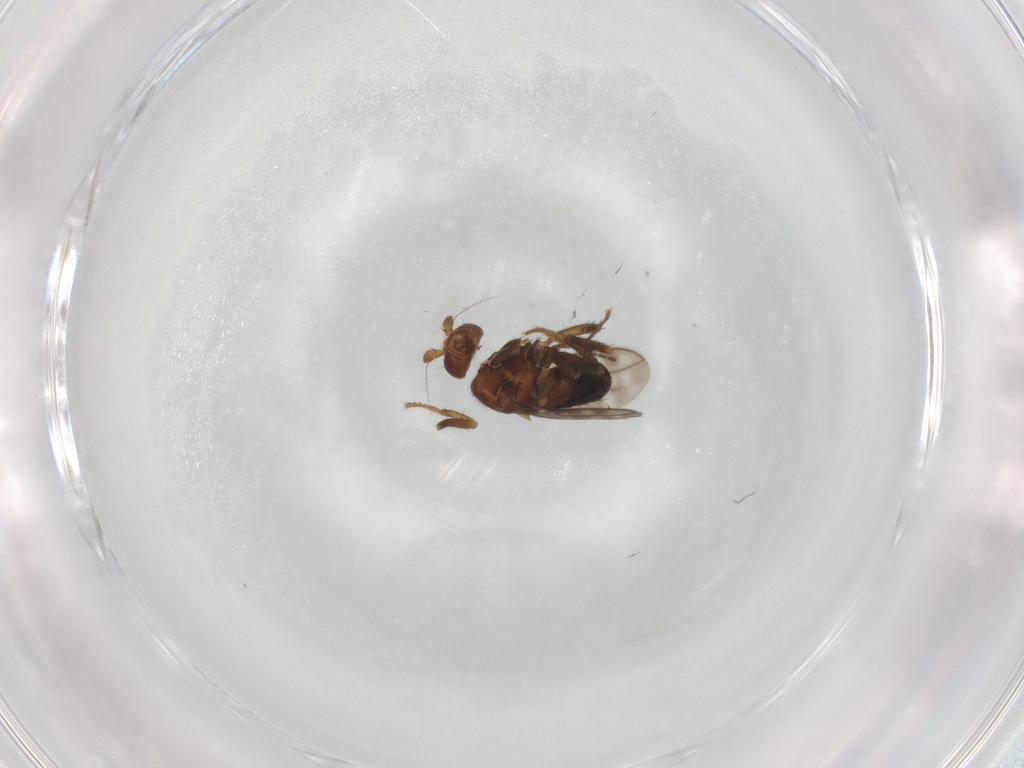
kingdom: Animalia
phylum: Arthropoda
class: Insecta
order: Diptera
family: Sphaeroceridae
